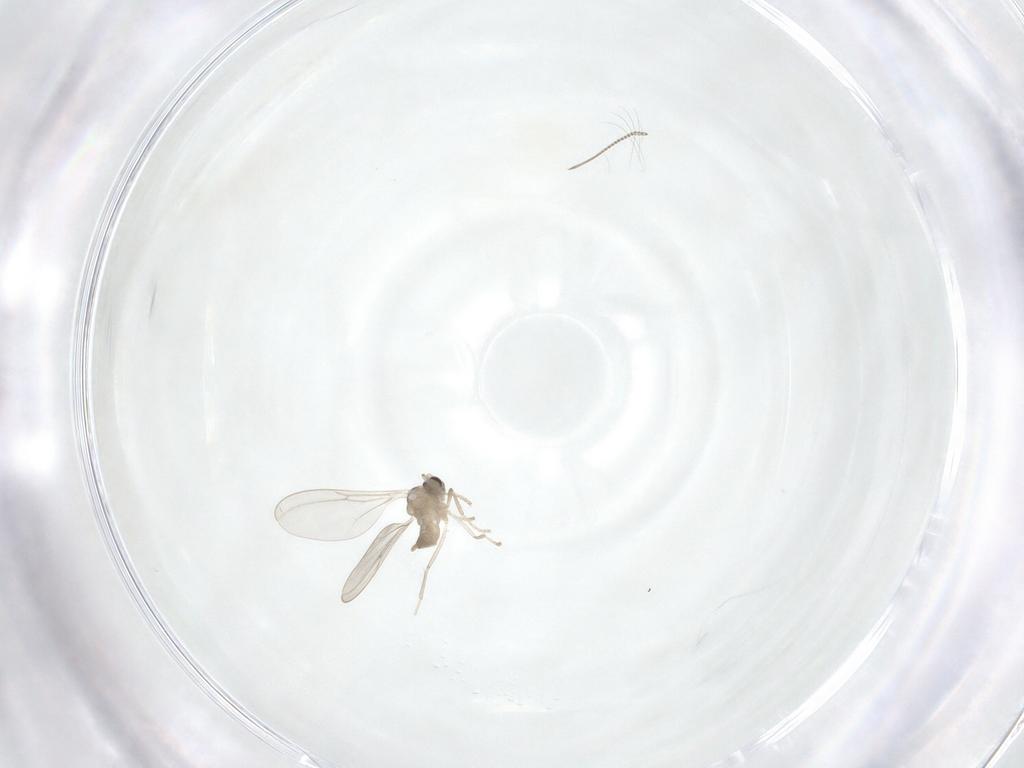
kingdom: Animalia
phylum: Arthropoda
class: Insecta
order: Diptera
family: Cecidomyiidae
